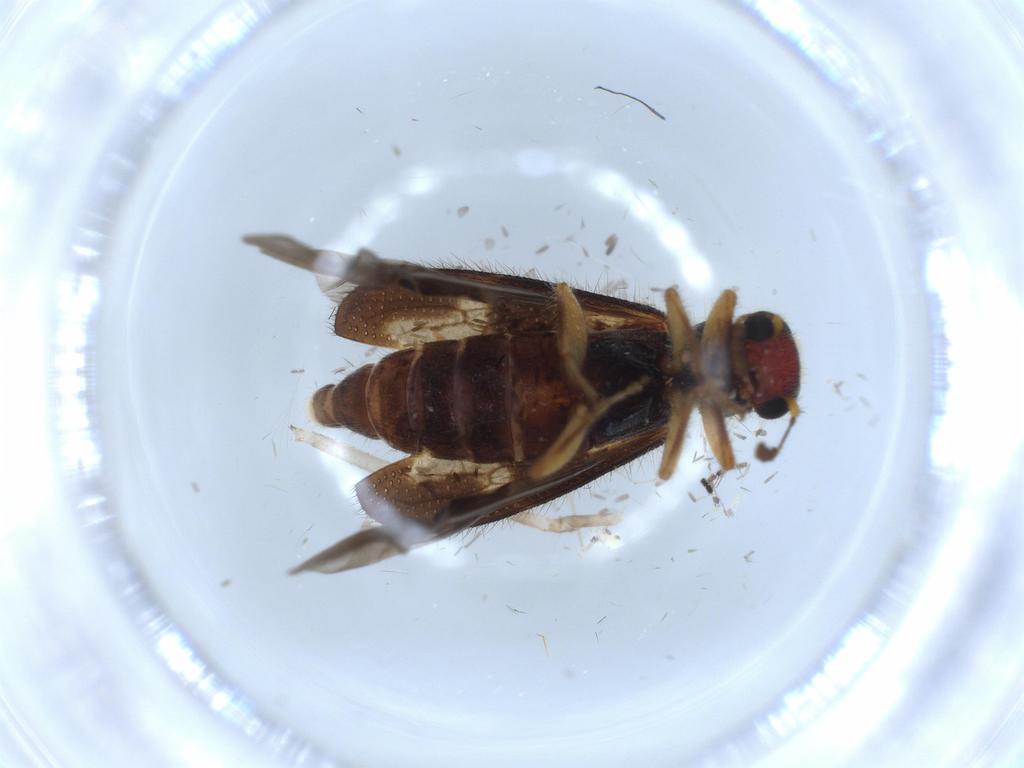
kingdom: Animalia
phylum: Arthropoda
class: Insecta
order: Coleoptera
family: Cleridae
